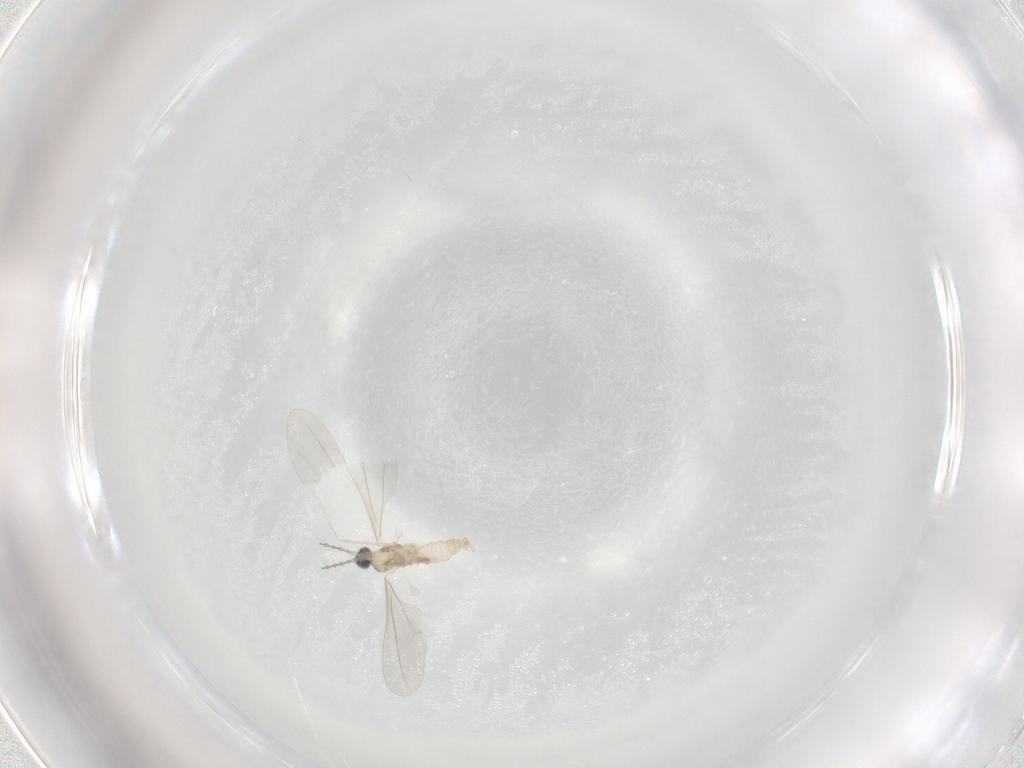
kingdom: Animalia
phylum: Arthropoda
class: Insecta
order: Diptera
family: Cecidomyiidae
